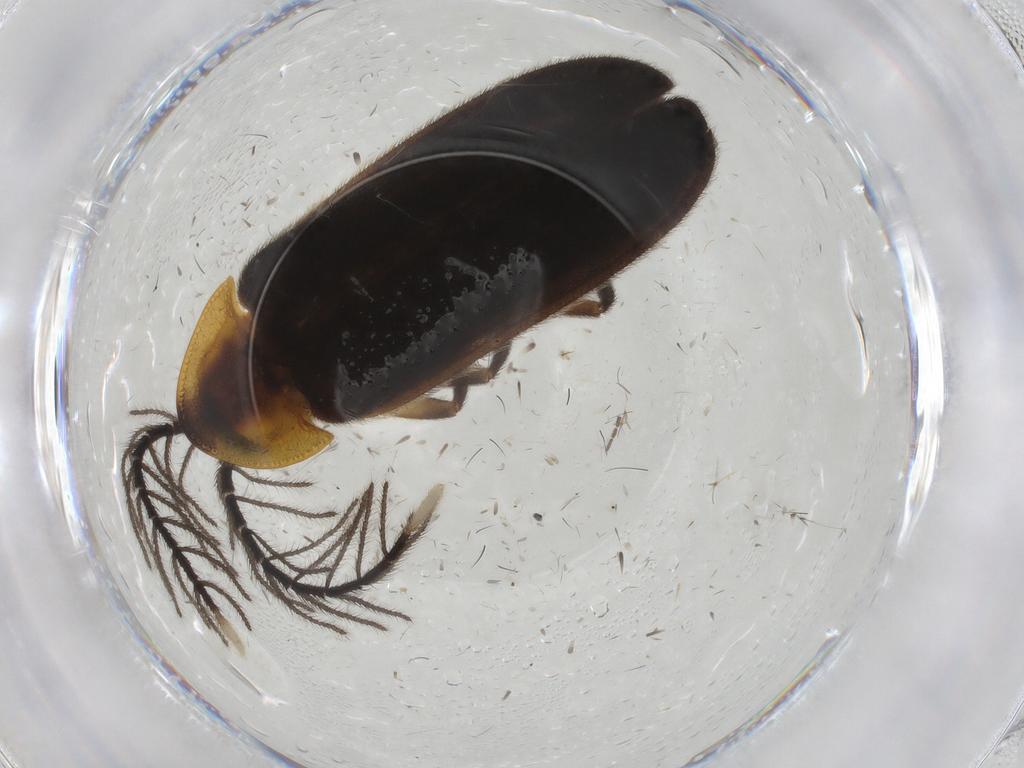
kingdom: Animalia
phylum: Arthropoda
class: Insecta
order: Coleoptera
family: Lampyridae
